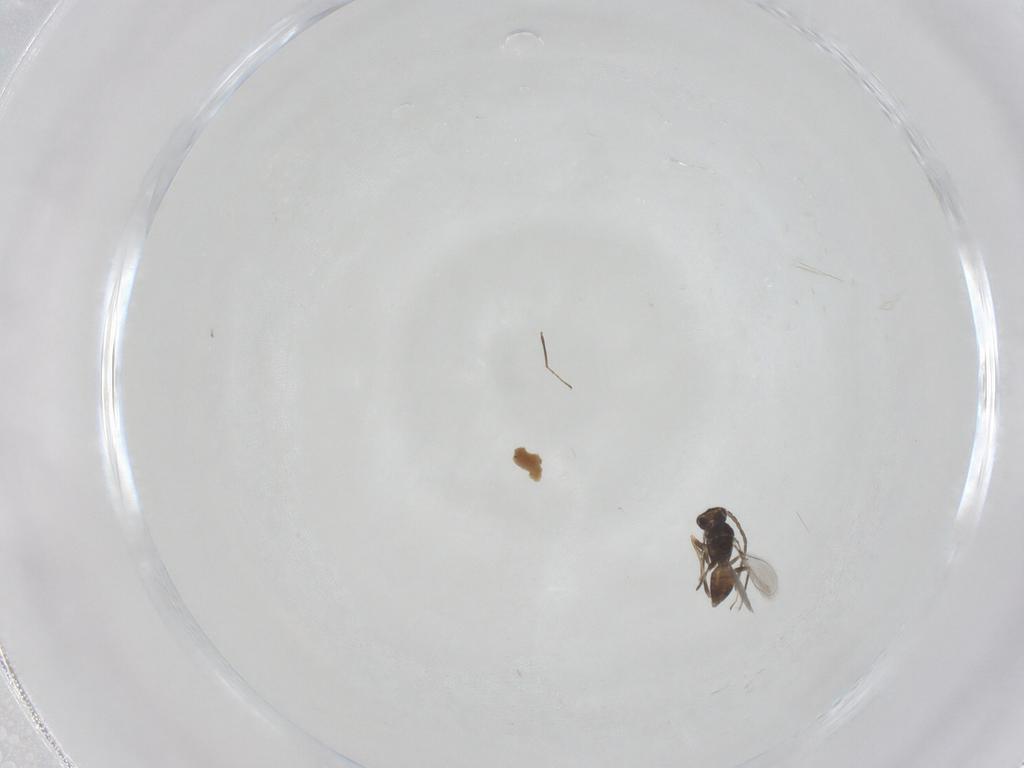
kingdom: Animalia
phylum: Arthropoda
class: Insecta
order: Hymenoptera
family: Mymaridae
